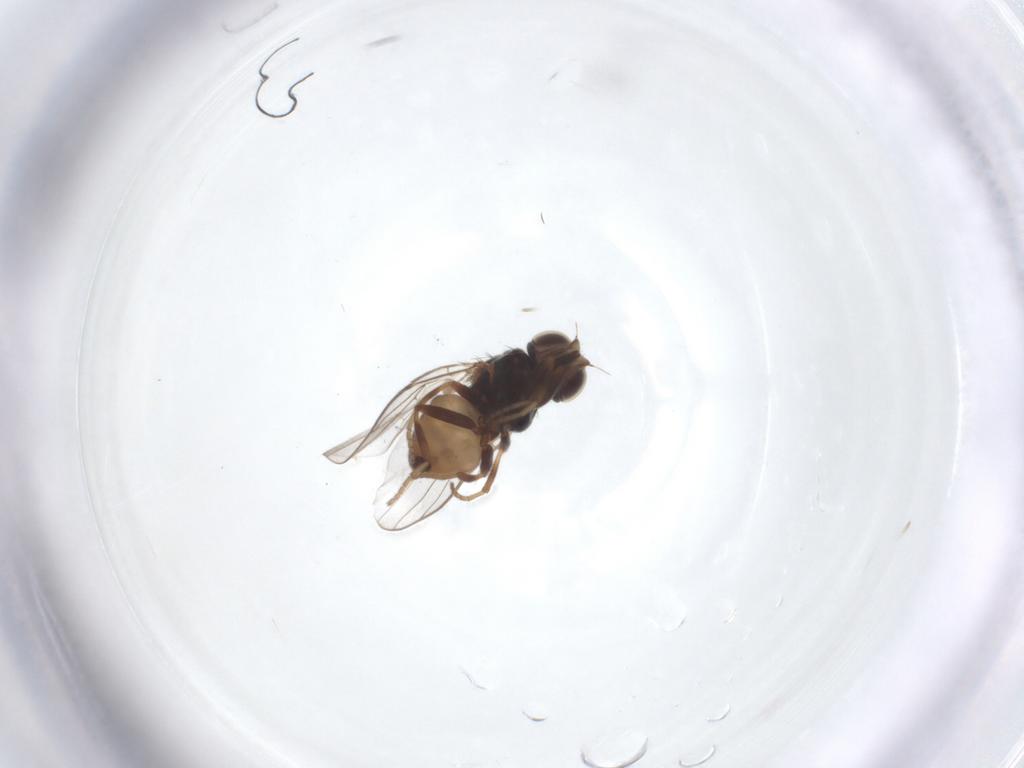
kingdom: Animalia
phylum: Arthropoda
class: Insecta
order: Diptera
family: Chloropidae
